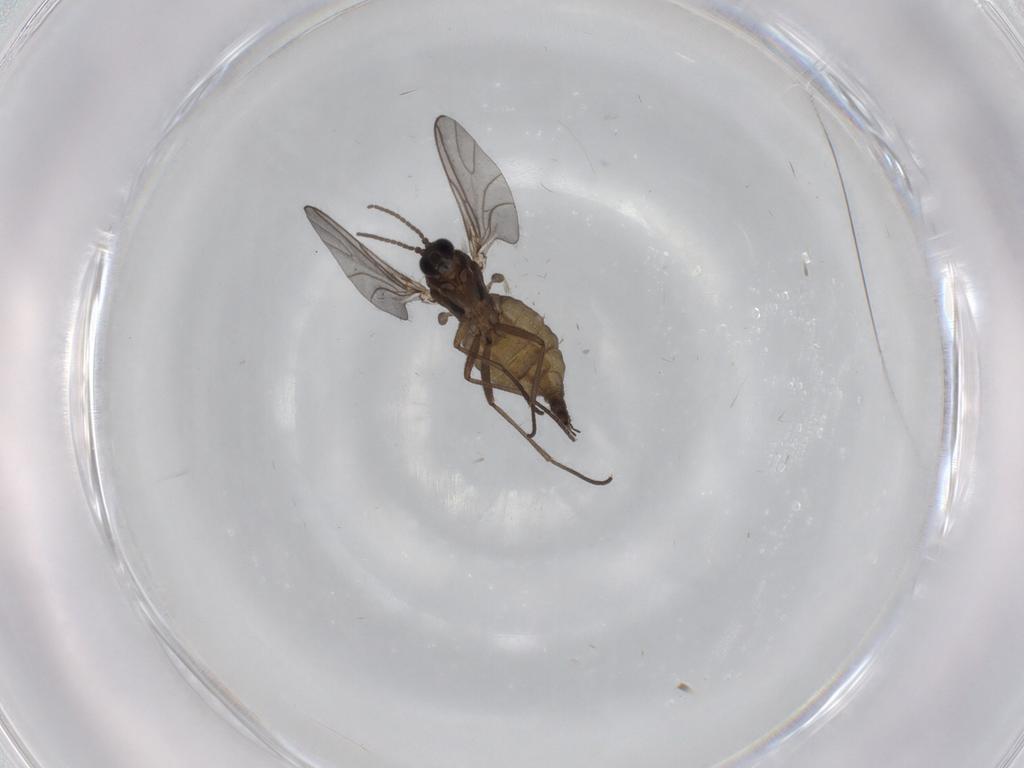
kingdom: Animalia
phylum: Arthropoda
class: Insecta
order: Diptera
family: Sciaridae
